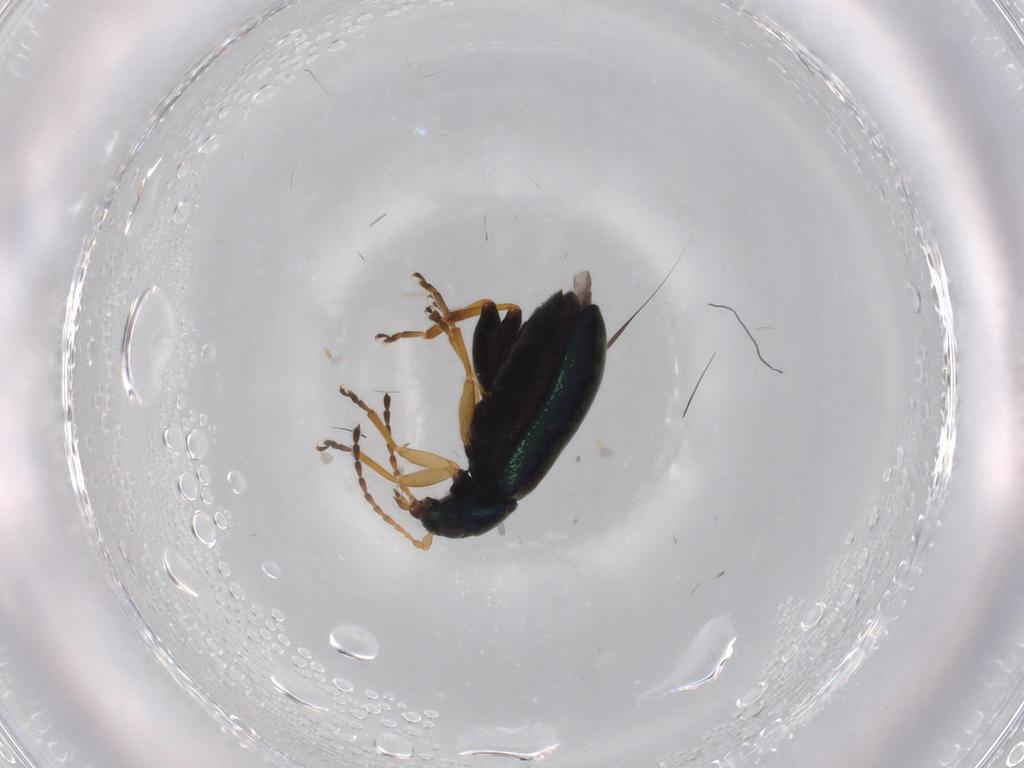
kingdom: Animalia
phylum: Arthropoda
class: Insecta
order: Coleoptera
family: Chrysomelidae
